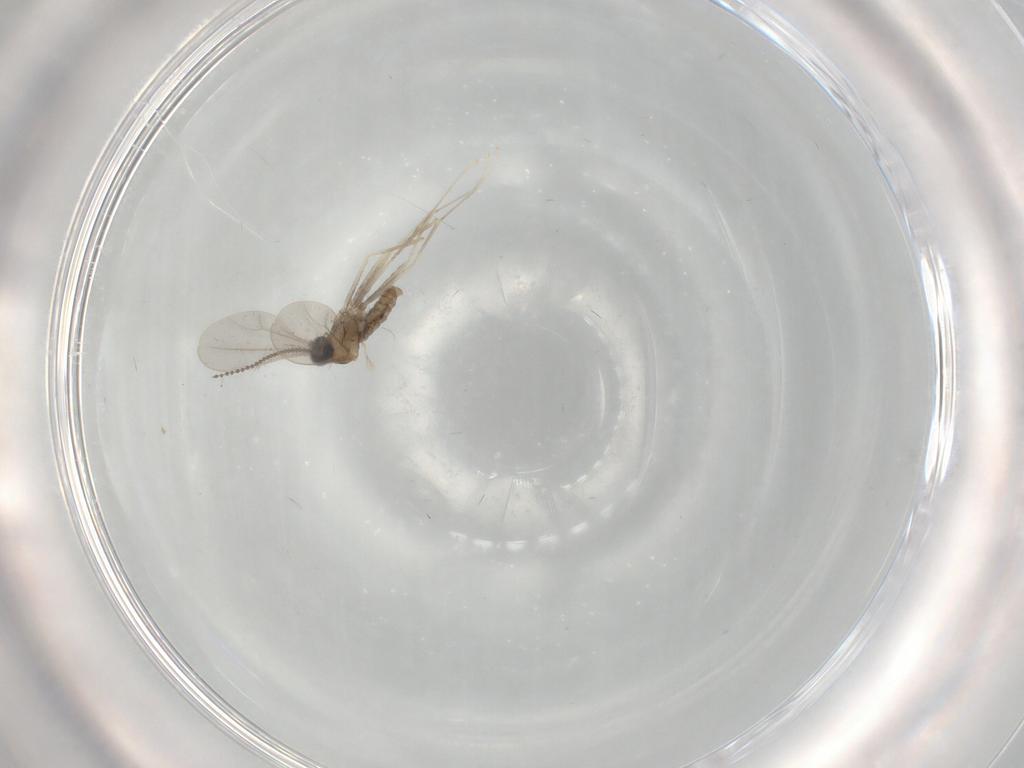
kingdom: Animalia
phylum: Arthropoda
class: Insecta
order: Diptera
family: Cecidomyiidae
